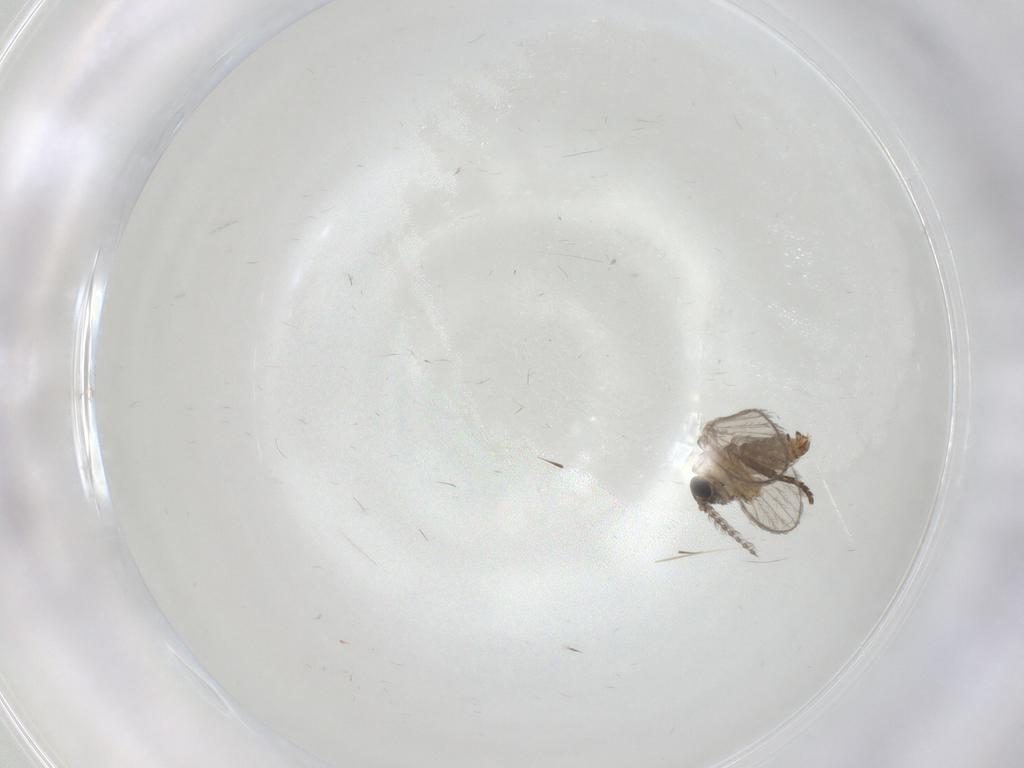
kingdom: Animalia
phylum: Arthropoda
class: Insecta
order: Diptera
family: Psychodidae
